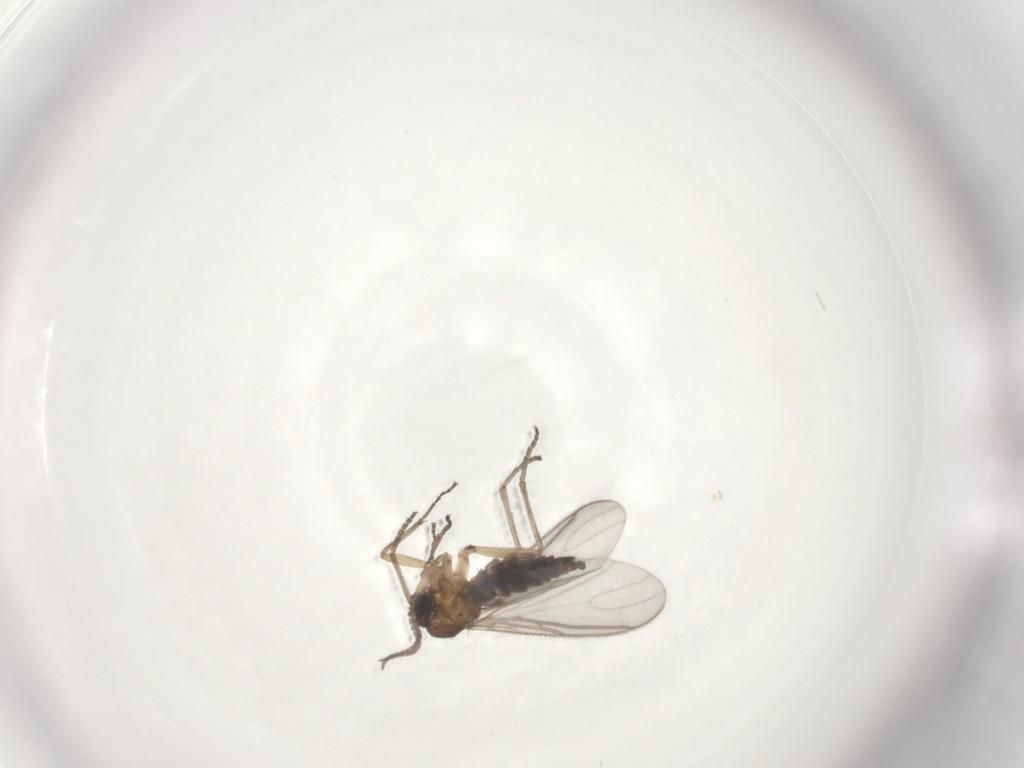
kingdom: Animalia
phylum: Arthropoda
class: Insecta
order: Diptera
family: Sciaridae
